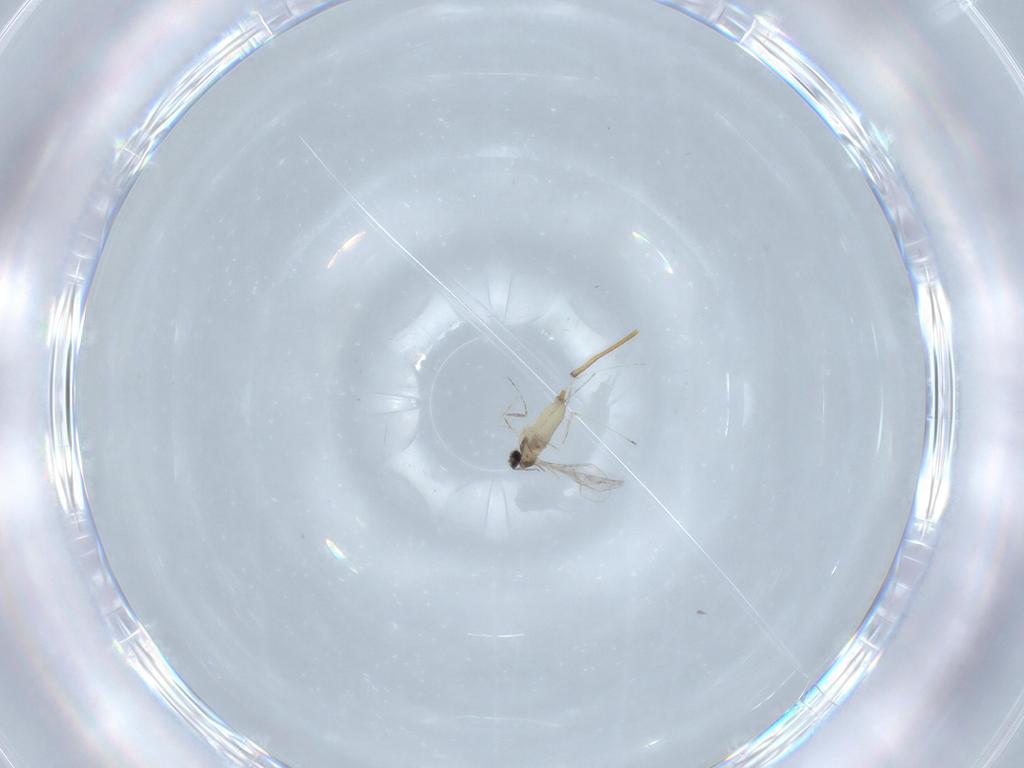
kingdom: Animalia
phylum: Arthropoda
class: Insecta
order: Diptera
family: Cecidomyiidae
